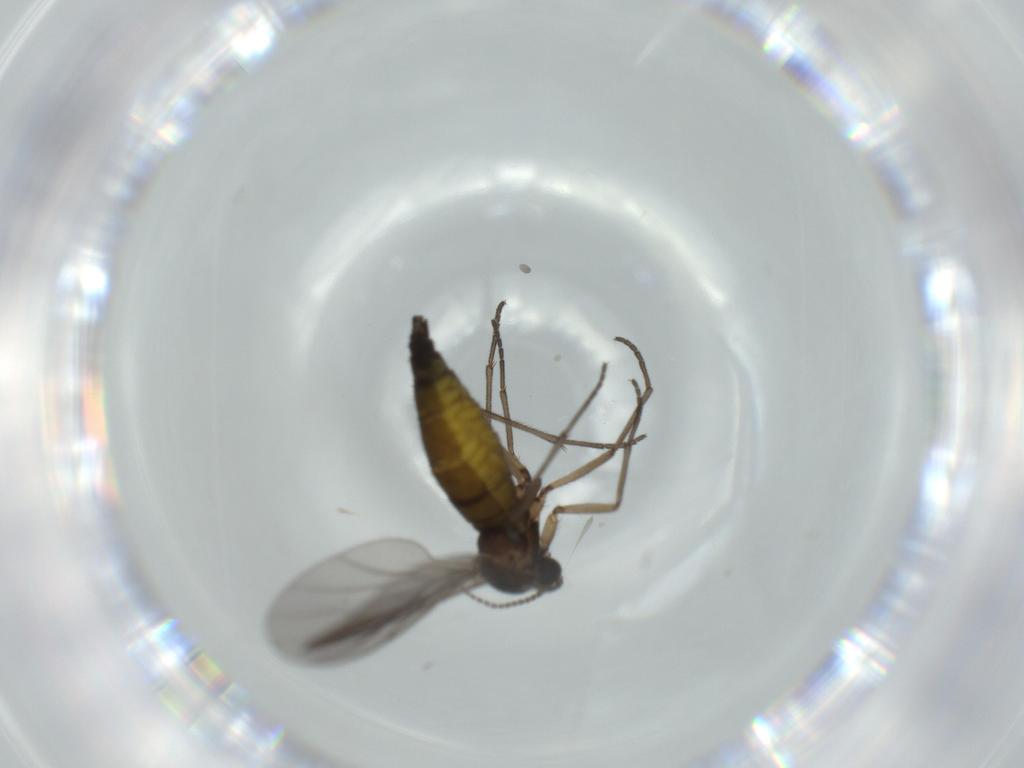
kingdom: Animalia
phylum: Arthropoda
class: Insecta
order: Diptera
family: Sciaridae
